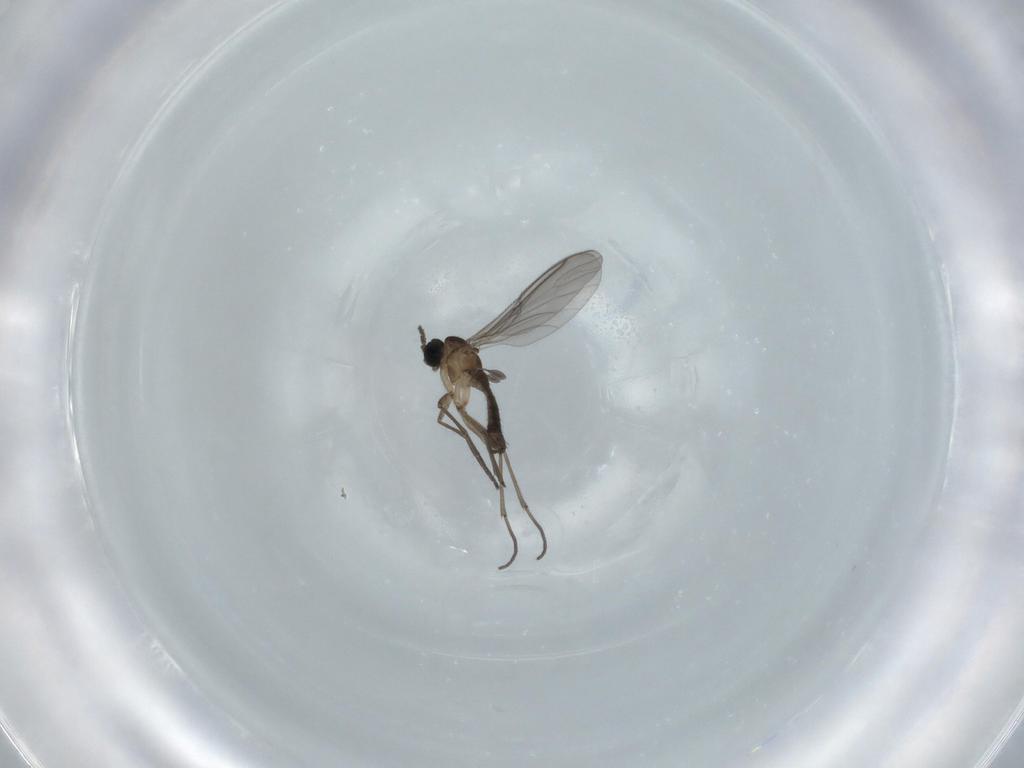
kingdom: Animalia
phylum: Arthropoda
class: Insecta
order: Diptera
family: Sciaridae
